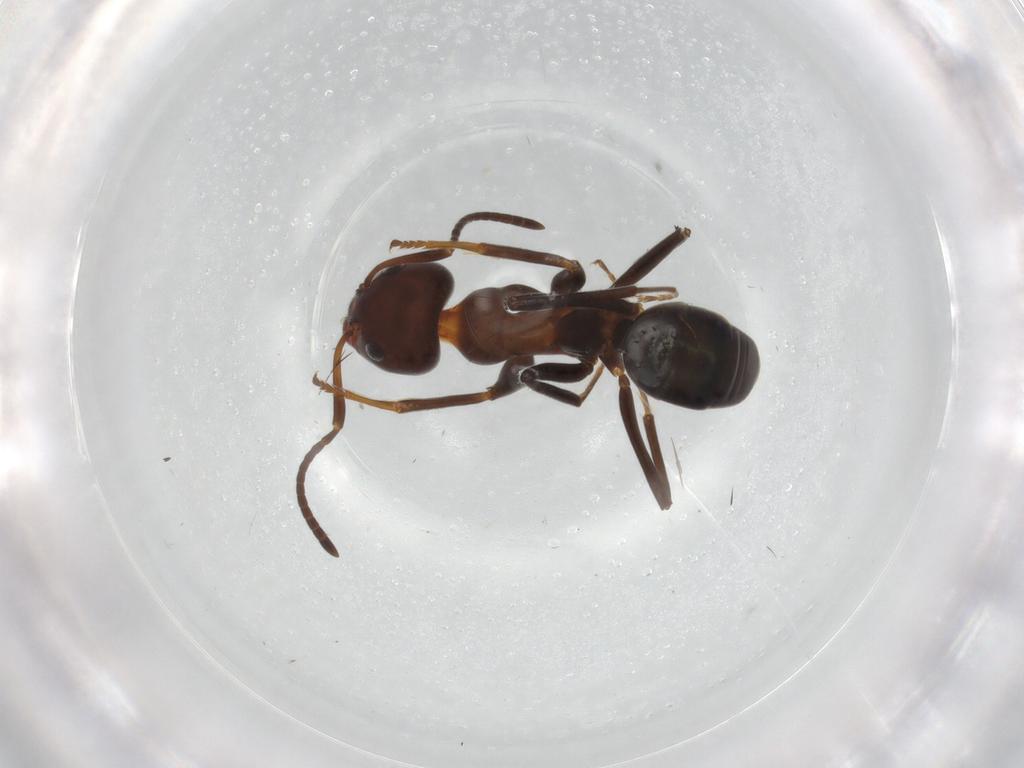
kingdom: Animalia
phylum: Arthropoda
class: Insecta
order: Hymenoptera
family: Formicidae
